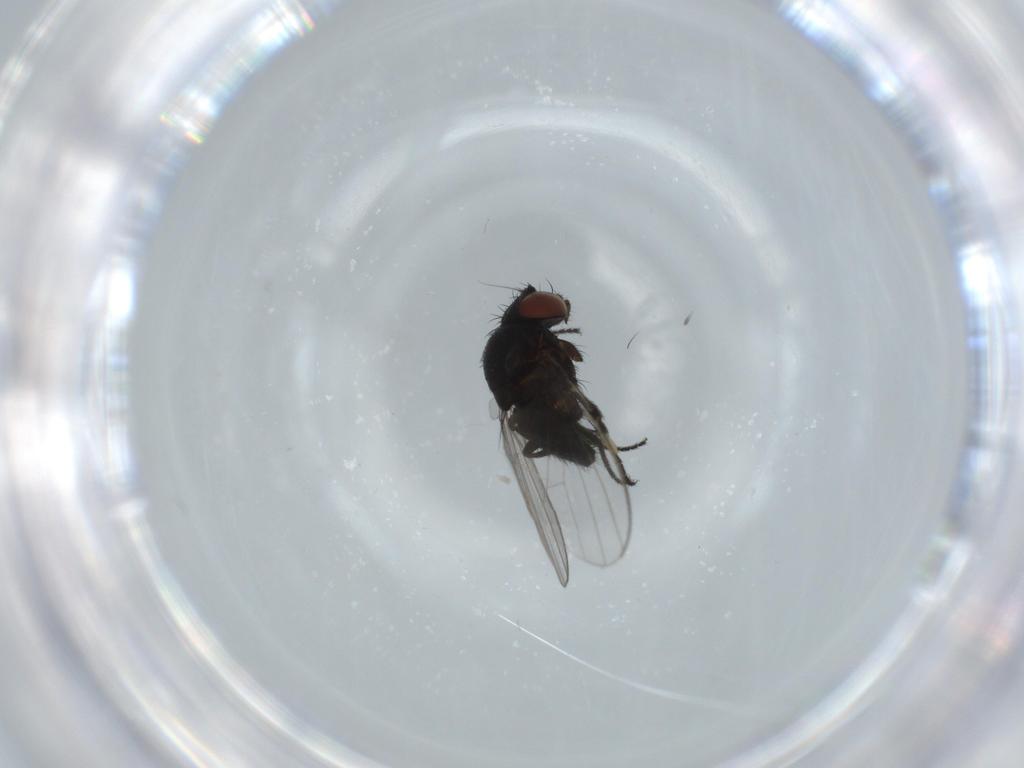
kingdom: Animalia
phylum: Arthropoda
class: Insecta
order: Diptera
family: Milichiidae
